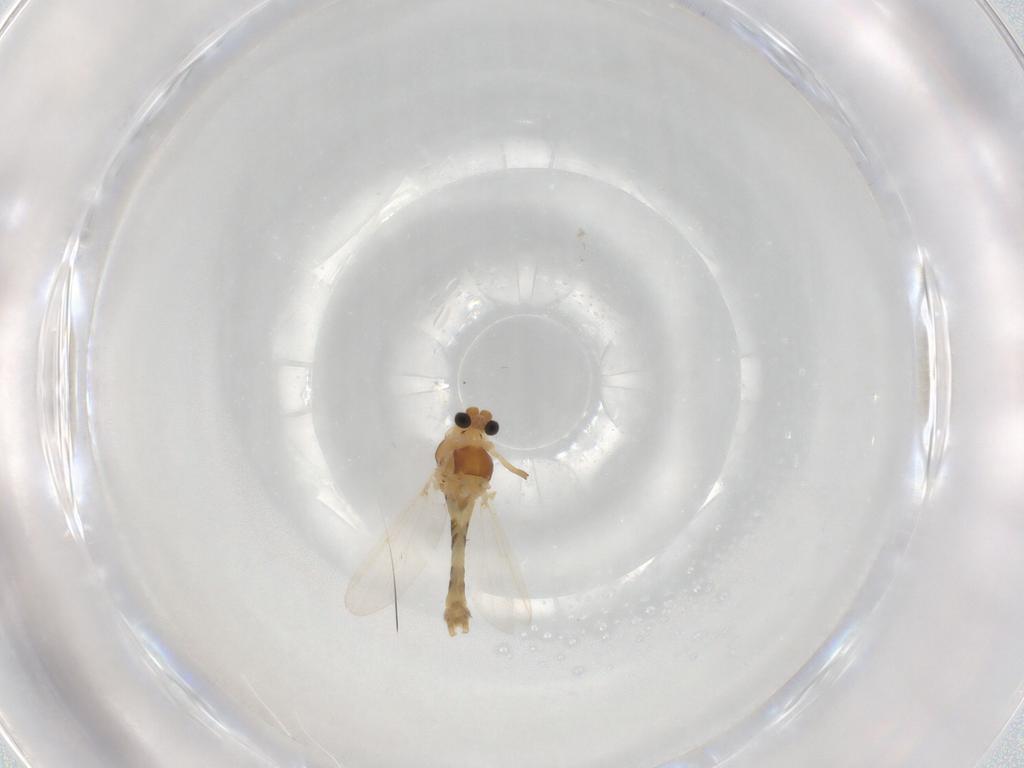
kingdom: Animalia
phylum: Arthropoda
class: Insecta
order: Diptera
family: Chironomidae
